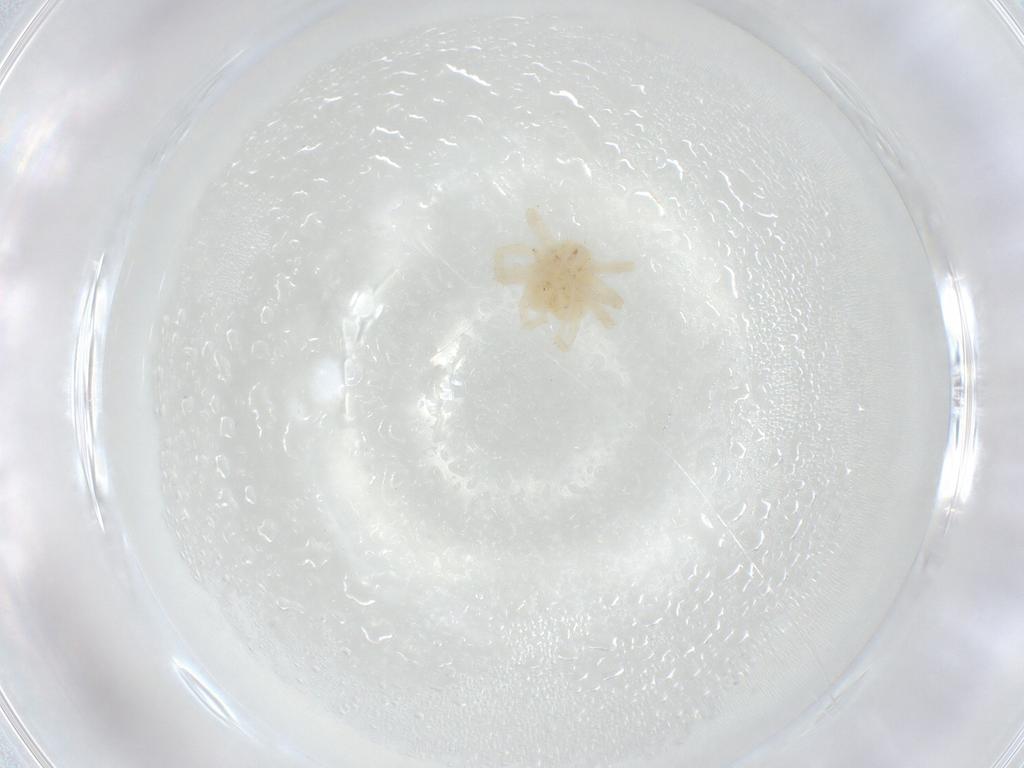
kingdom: Animalia
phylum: Arthropoda
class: Arachnida
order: Trombidiformes
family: Anystidae
